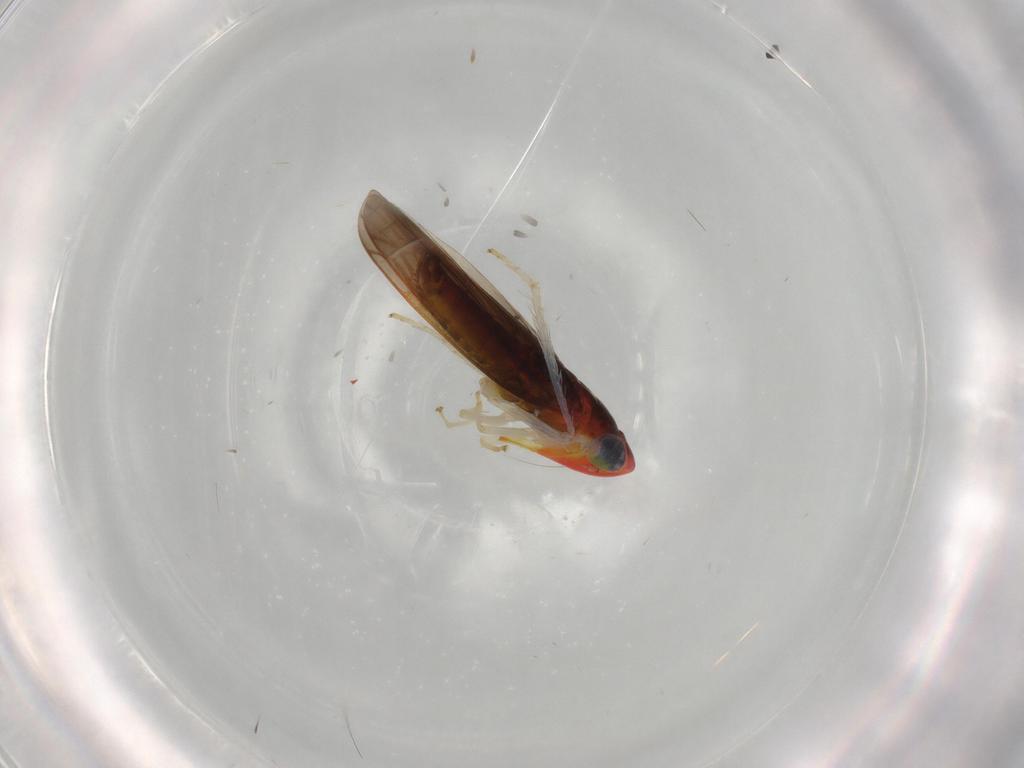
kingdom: Animalia
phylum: Arthropoda
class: Insecta
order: Hemiptera
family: Cicadellidae
